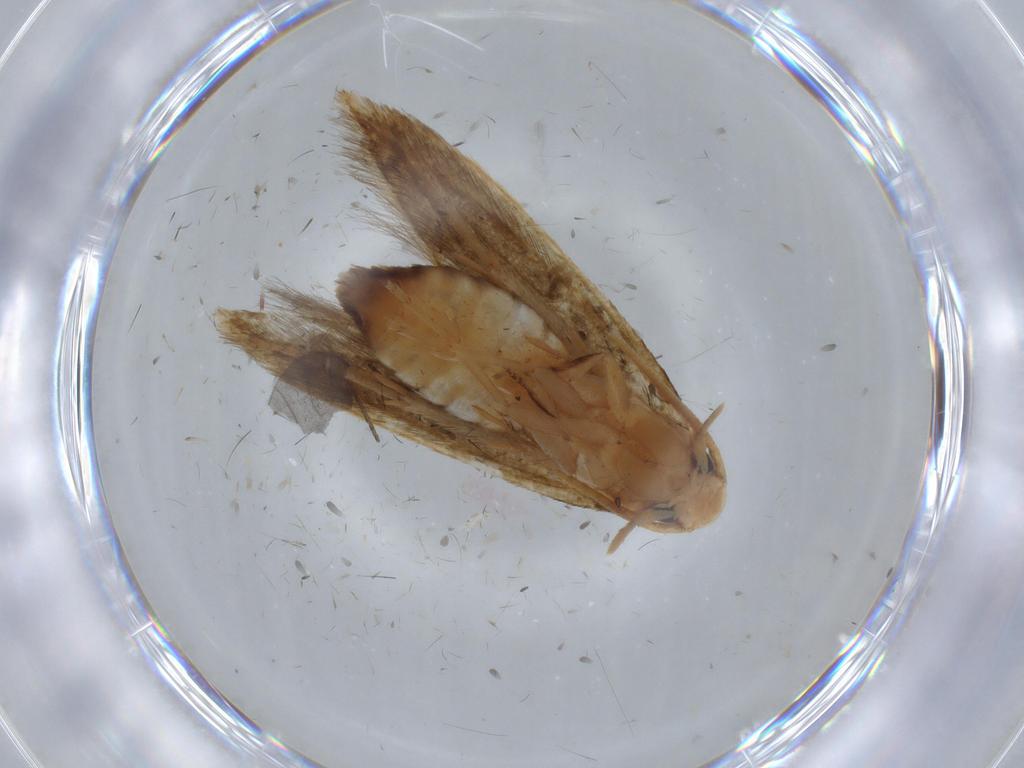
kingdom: Animalia
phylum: Arthropoda
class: Insecta
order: Lepidoptera
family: Tineidae
